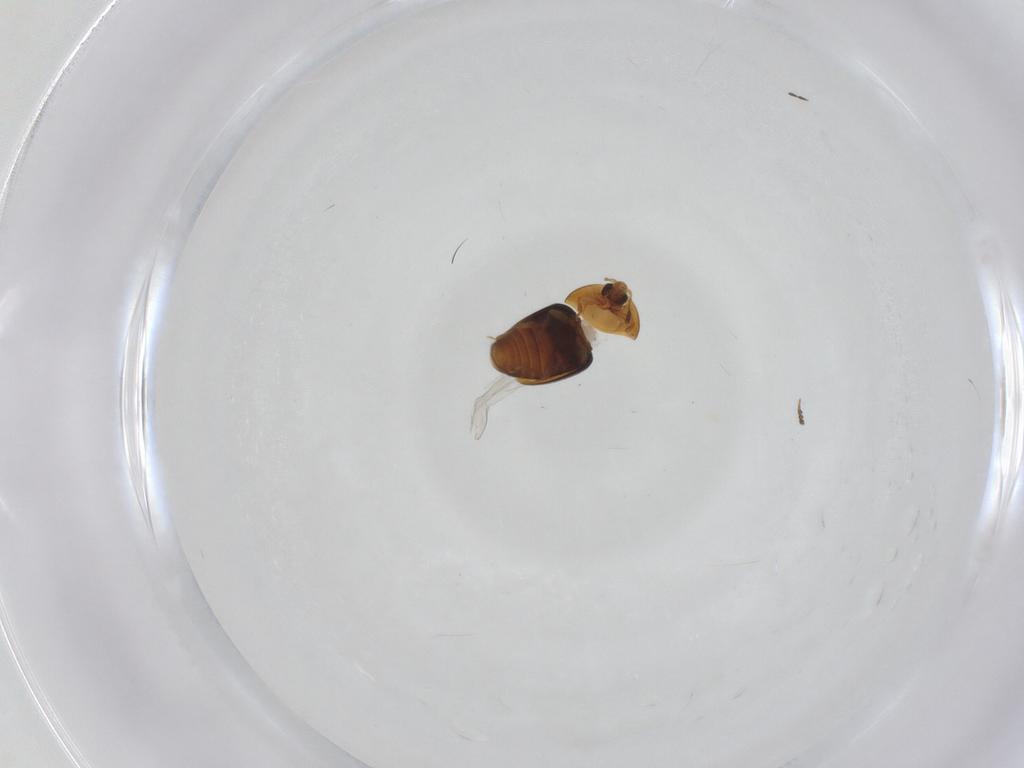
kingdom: Animalia
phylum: Arthropoda
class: Insecta
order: Coleoptera
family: Corylophidae
